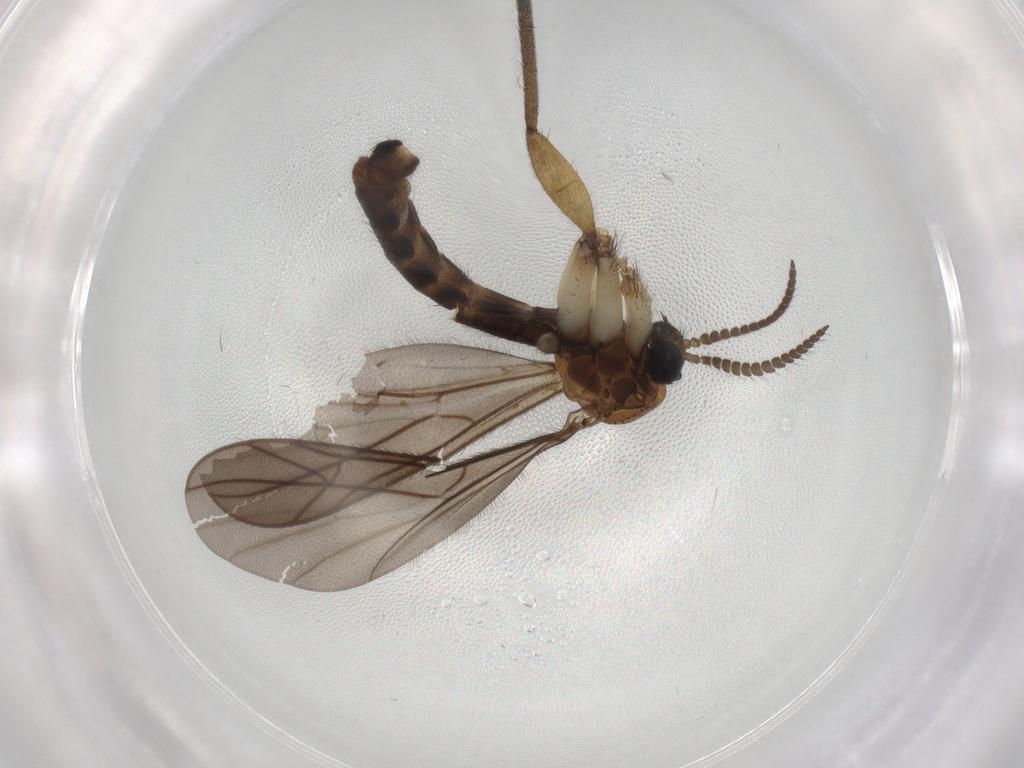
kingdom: Animalia
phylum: Arthropoda
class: Insecta
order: Diptera
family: Ditomyiidae
